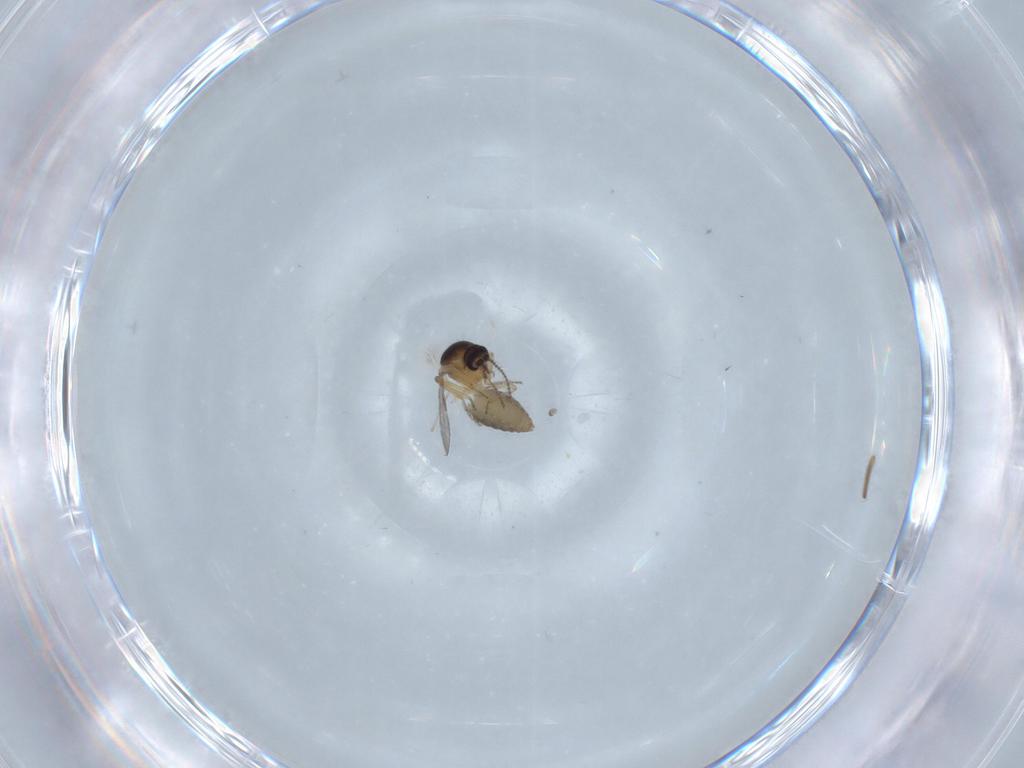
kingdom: Animalia
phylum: Arthropoda
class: Insecta
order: Diptera
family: Ceratopogonidae
